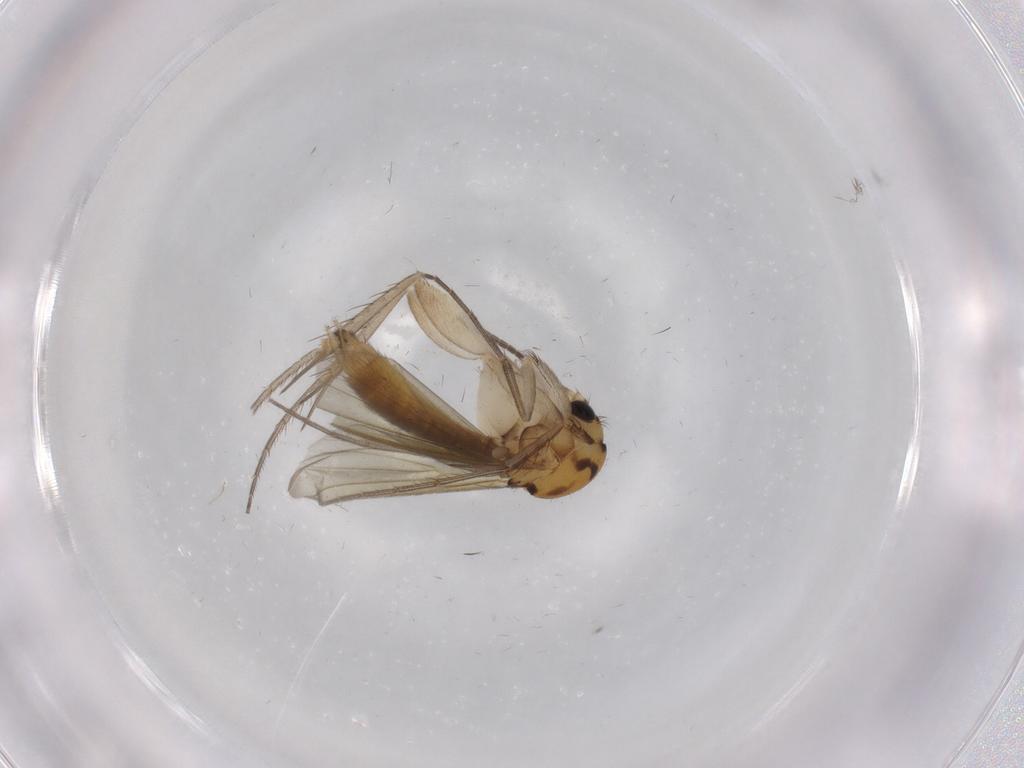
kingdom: Animalia
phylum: Arthropoda
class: Insecta
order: Diptera
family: Mycetophilidae
